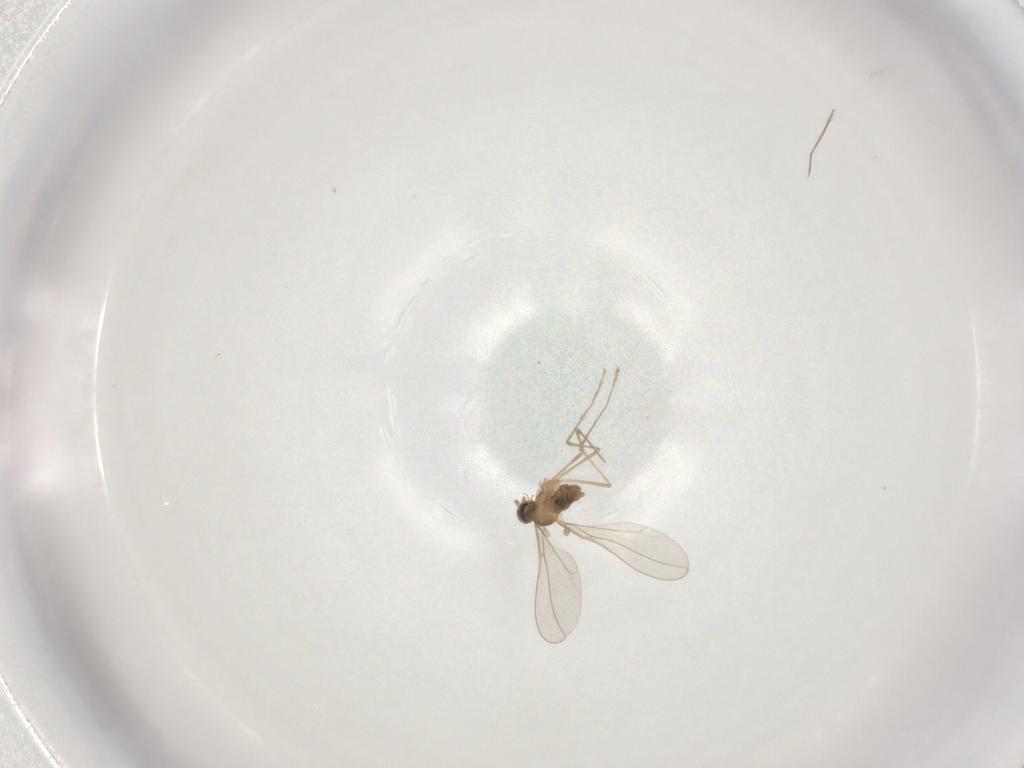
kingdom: Animalia
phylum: Arthropoda
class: Insecta
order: Diptera
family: Cecidomyiidae
